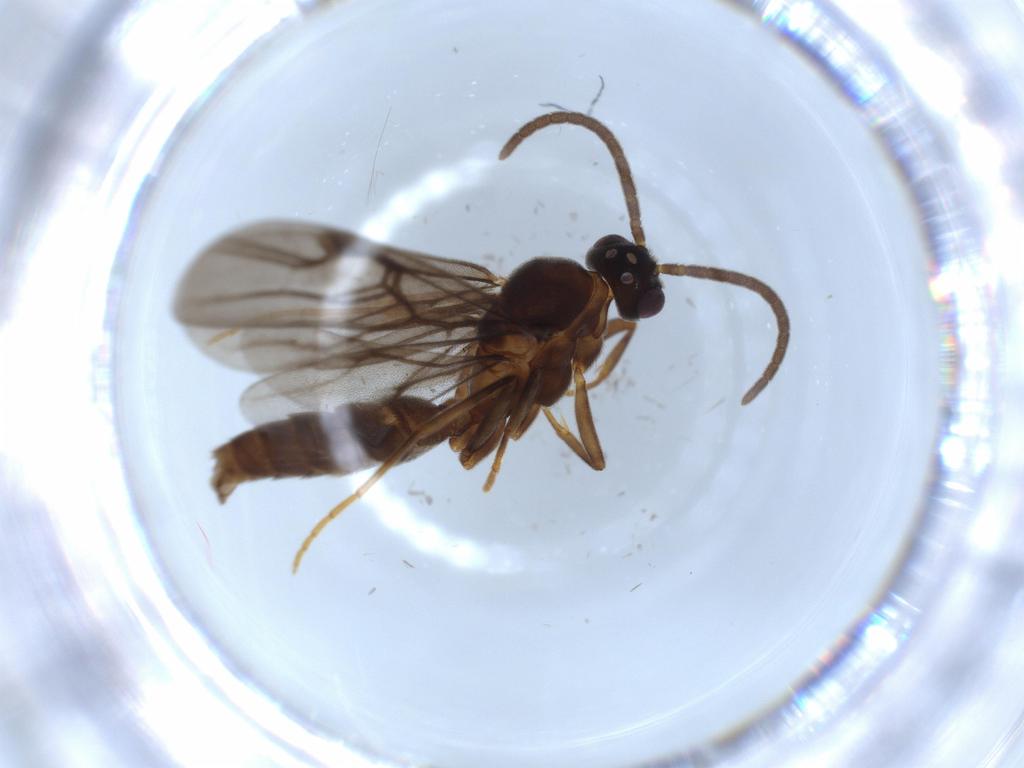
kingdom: Animalia
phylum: Arthropoda
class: Insecta
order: Hymenoptera
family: Formicidae
